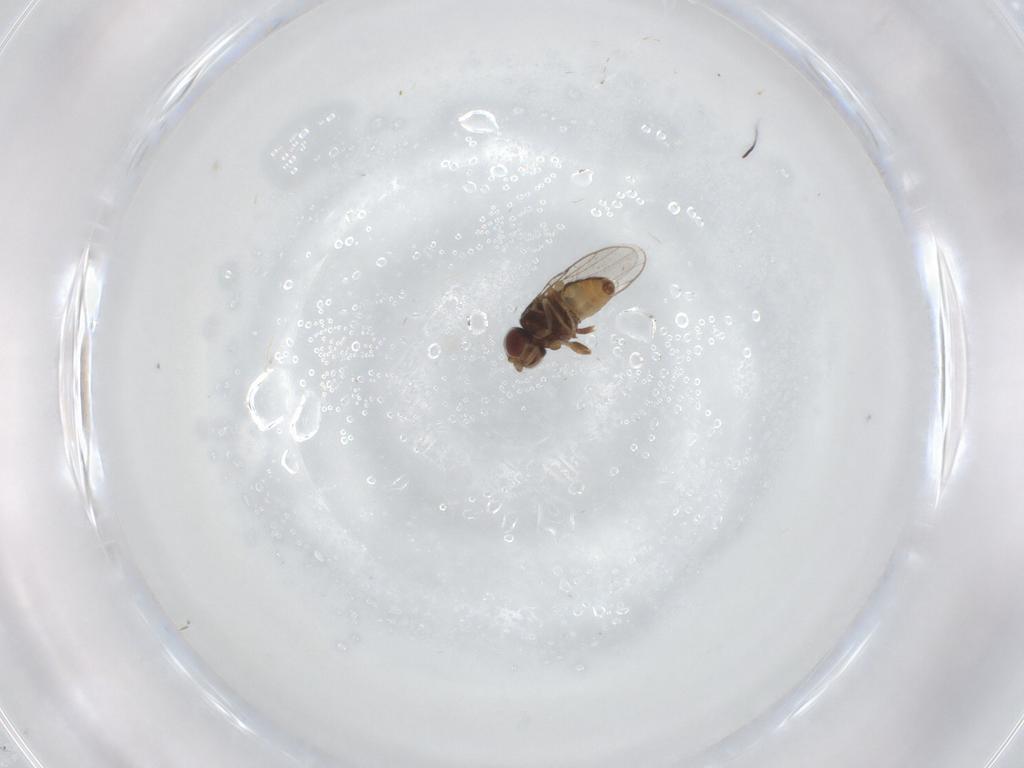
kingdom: Animalia
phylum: Arthropoda
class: Insecta
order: Diptera
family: Chloropidae
